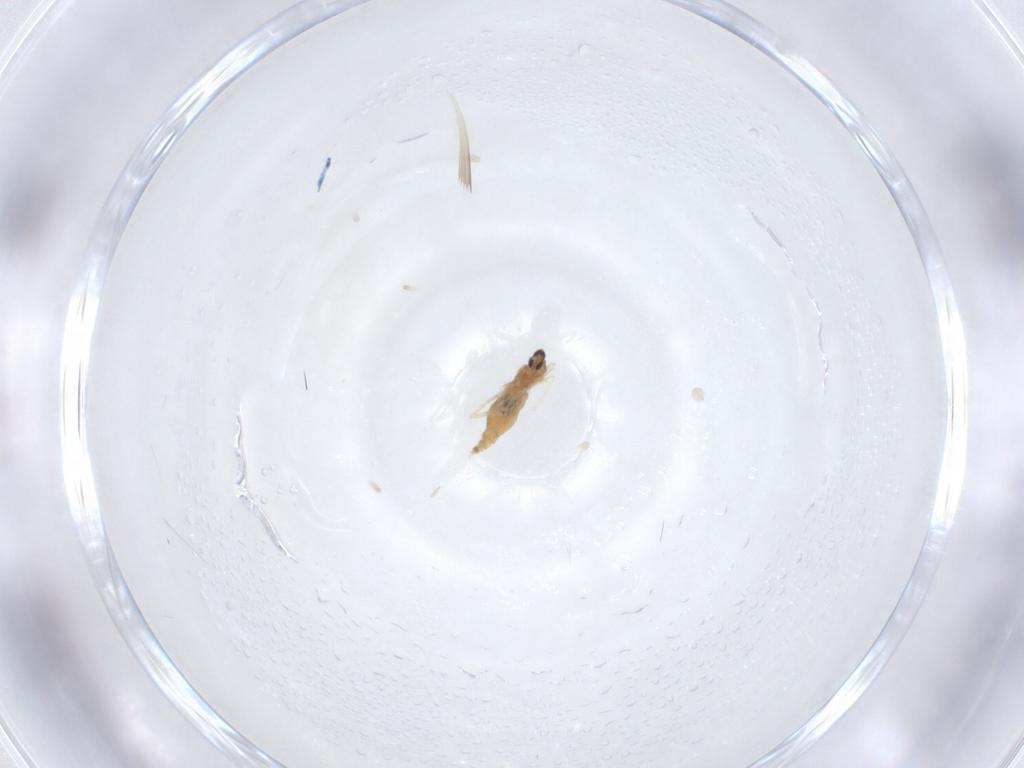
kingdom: Animalia
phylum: Arthropoda
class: Insecta
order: Diptera
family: Cecidomyiidae
